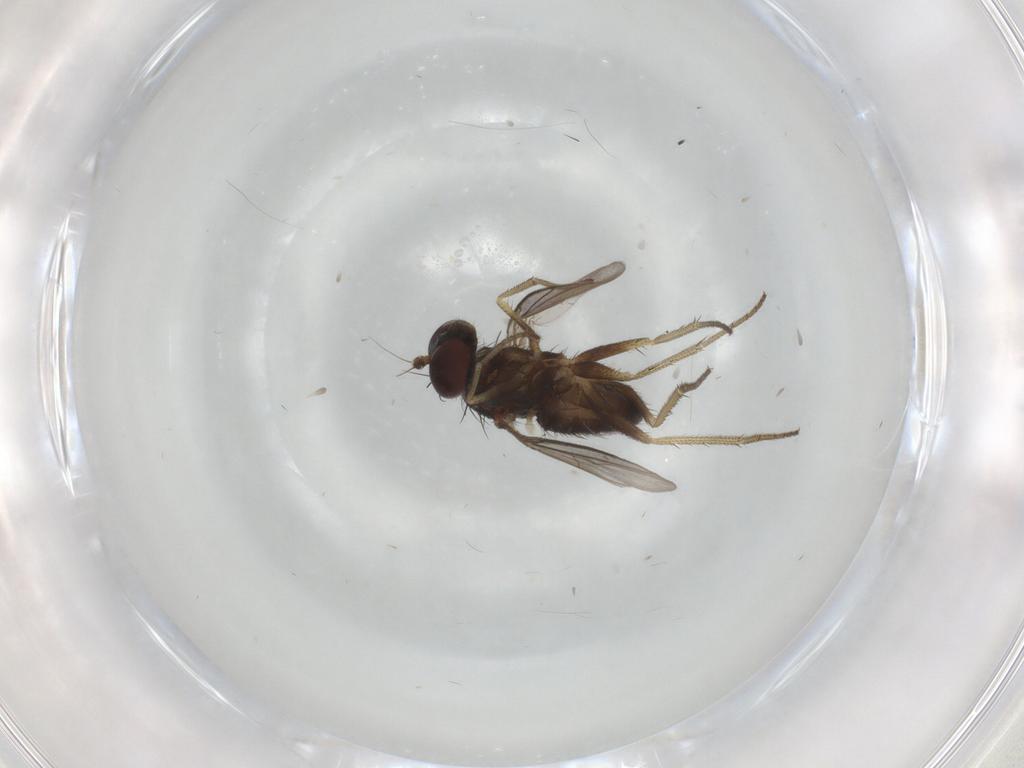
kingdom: Animalia
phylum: Arthropoda
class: Insecta
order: Diptera
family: Dolichopodidae
